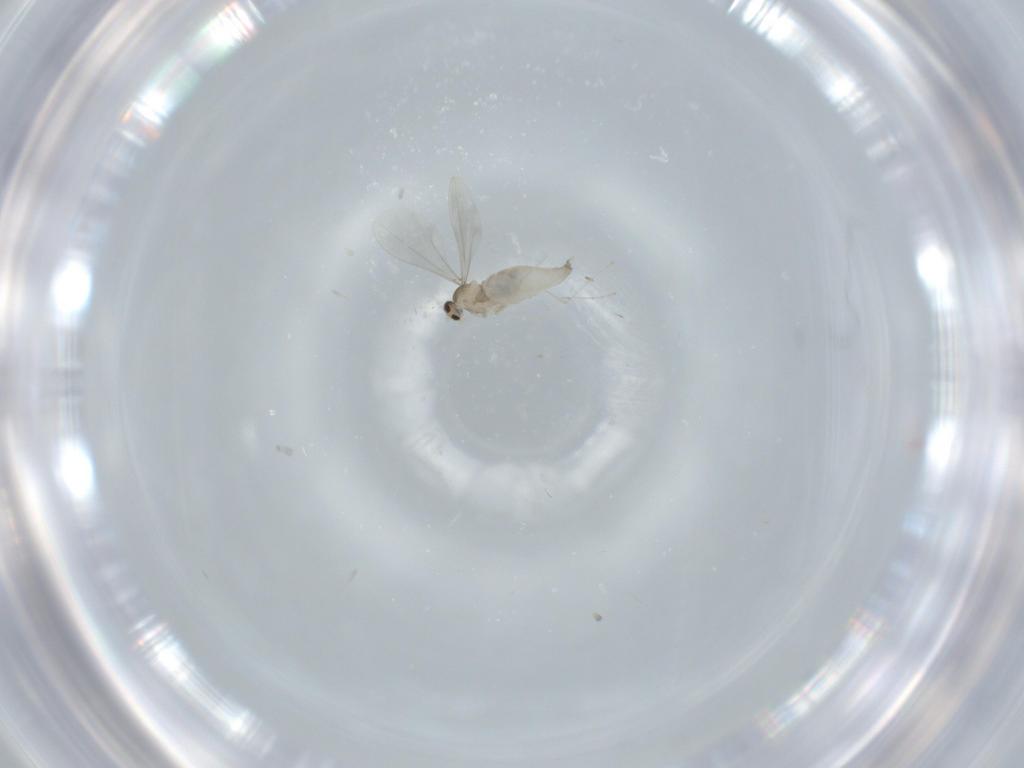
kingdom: Animalia
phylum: Arthropoda
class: Insecta
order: Diptera
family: Cecidomyiidae
